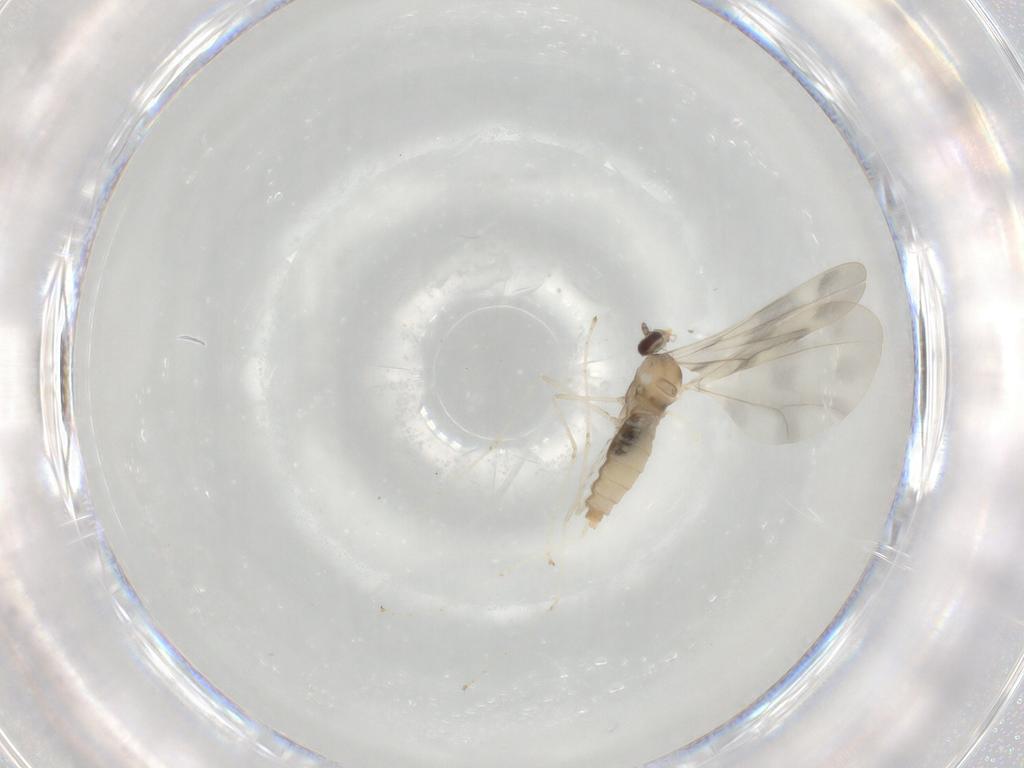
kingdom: Animalia
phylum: Arthropoda
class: Insecta
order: Diptera
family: Cecidomyiidae
